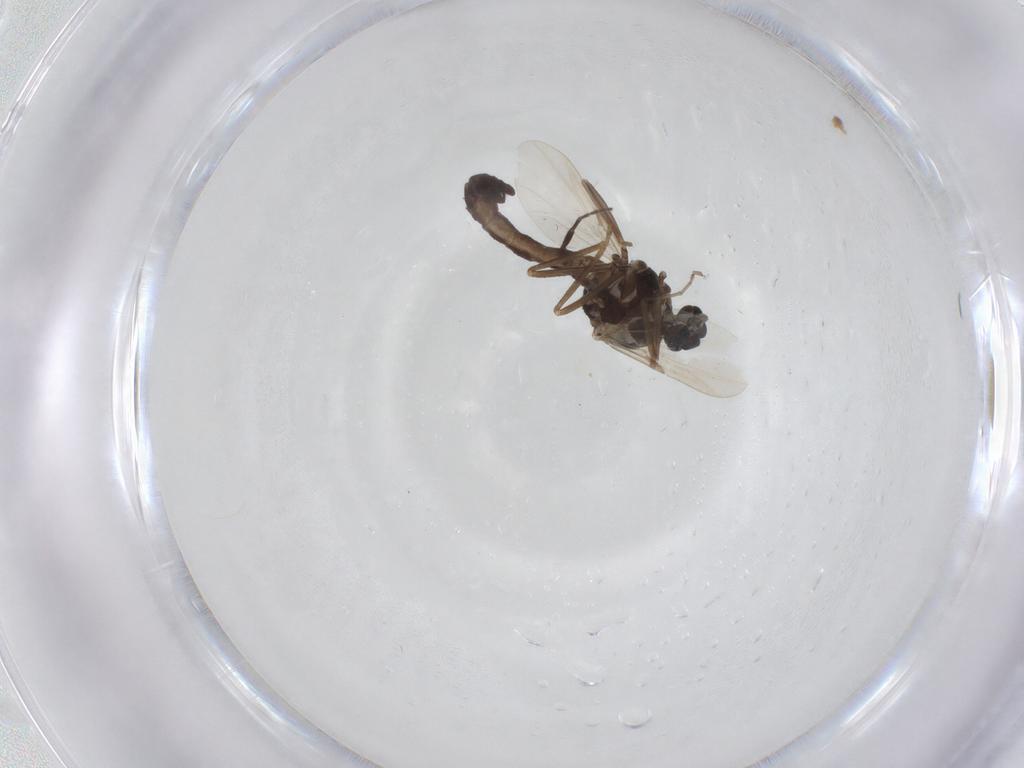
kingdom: Animalia
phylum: Arthropoda
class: Insecta
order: Diptera
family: Ceratopogonidae
